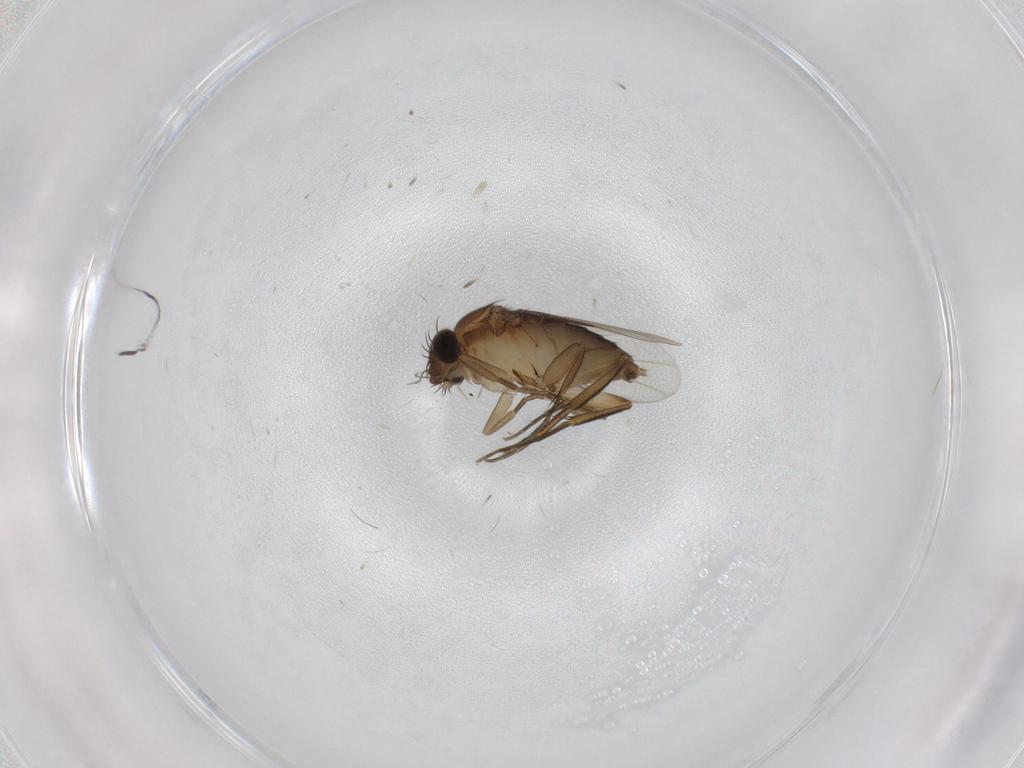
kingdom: Animalia
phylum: Arthropoda
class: Insecta
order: Diptera
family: Phoridae
